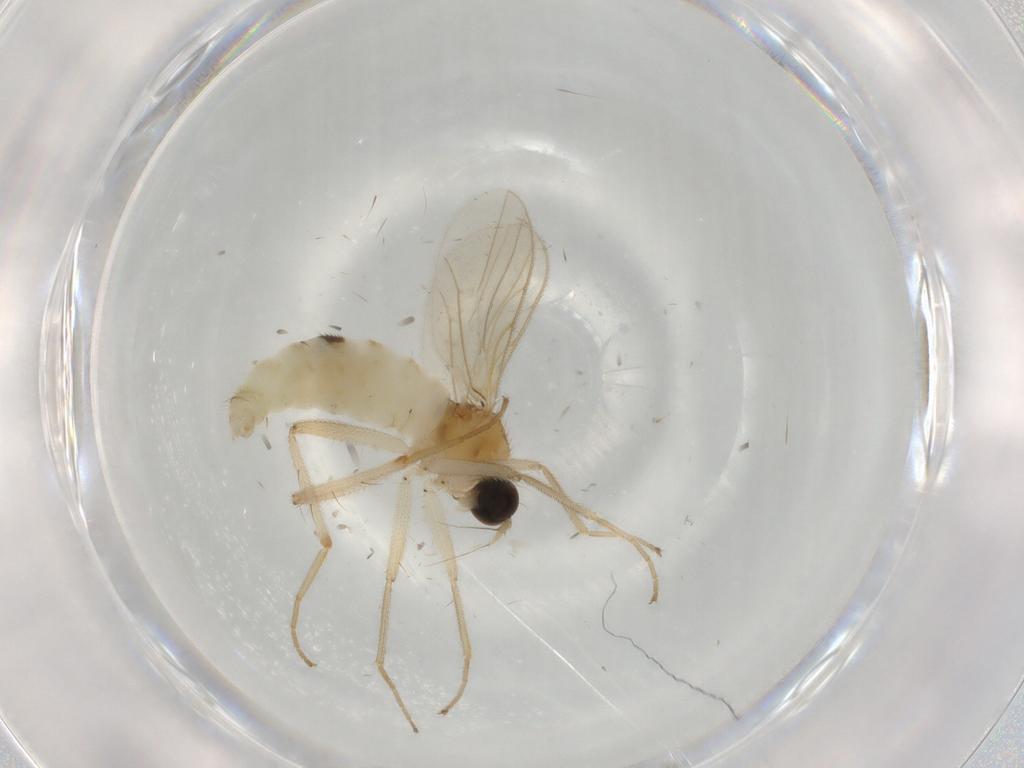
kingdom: Animalia
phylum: Arthropoda
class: Insecta
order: Diptera
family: Hybotidae
